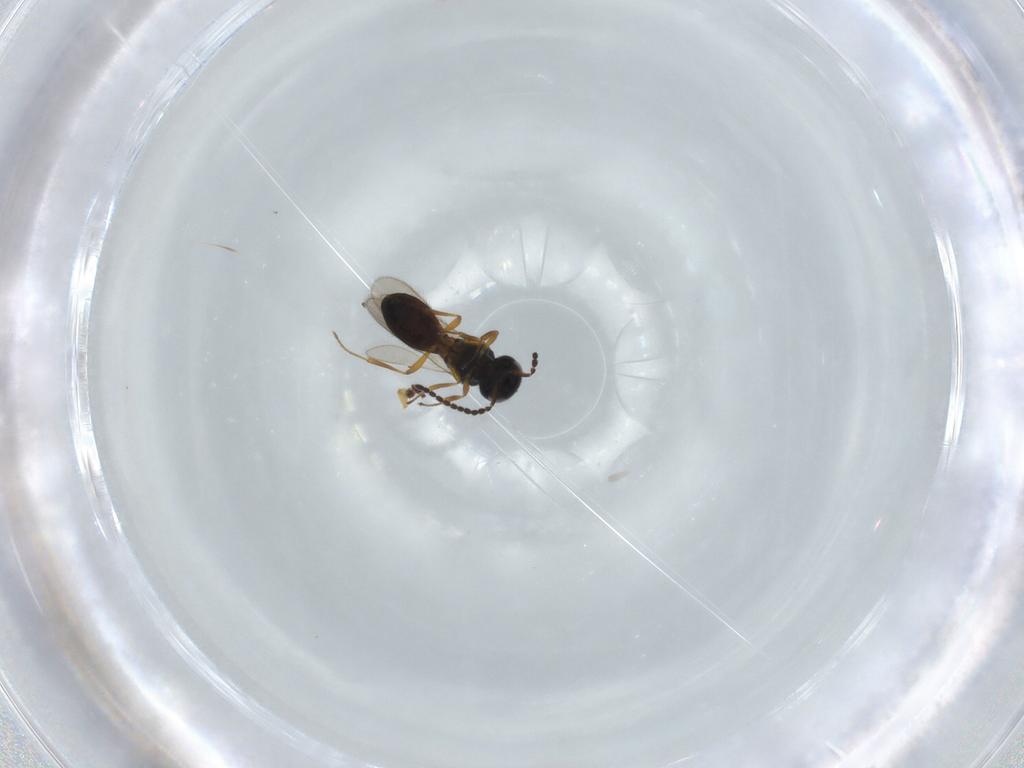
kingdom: Animalia
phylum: Arthropoda
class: Insecta
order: Hymenoptera
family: Scelionidae
